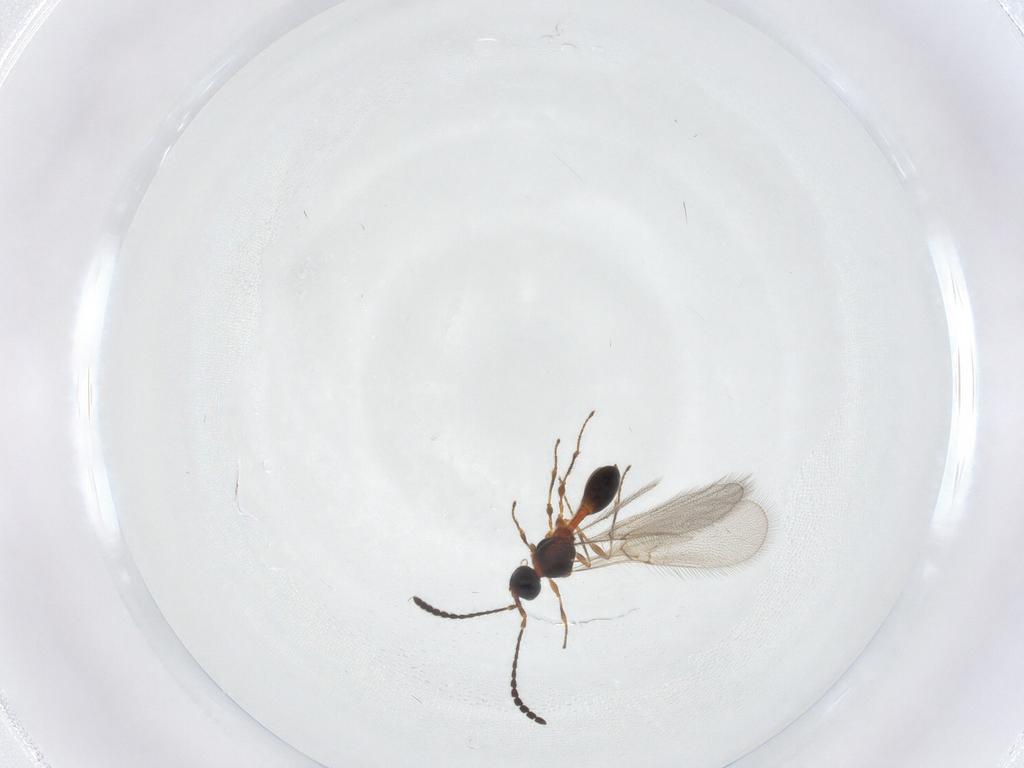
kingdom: Animalia
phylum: Arthropoda
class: Insecta
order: Hymenoptera
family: Diapriidae
